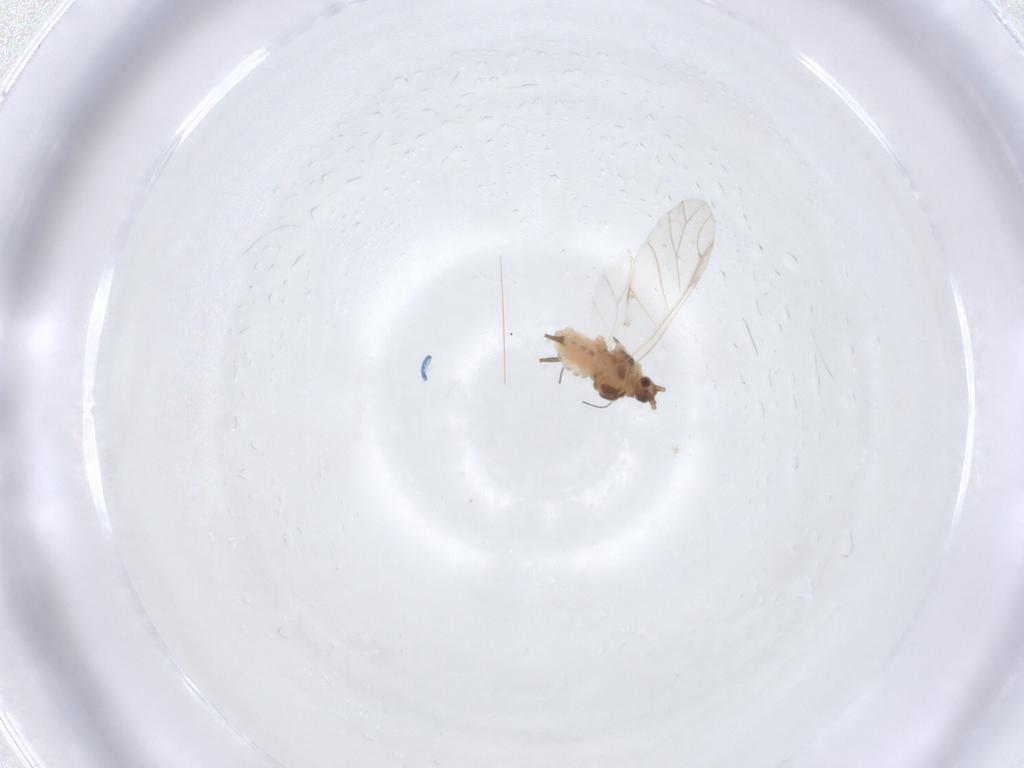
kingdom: Animalia
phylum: Arthropoda
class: Insecta
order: Hemiptera
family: Aphididae
